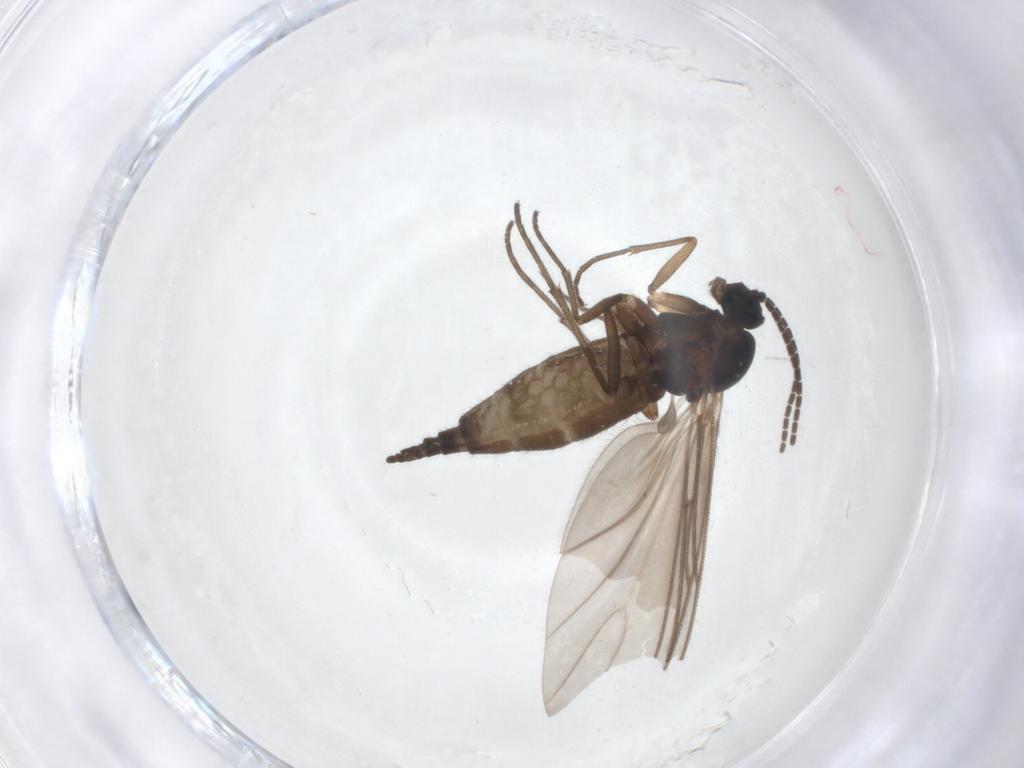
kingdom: Animalia
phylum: Arthropoda
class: Insecta
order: Diptera
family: Sciaridae
